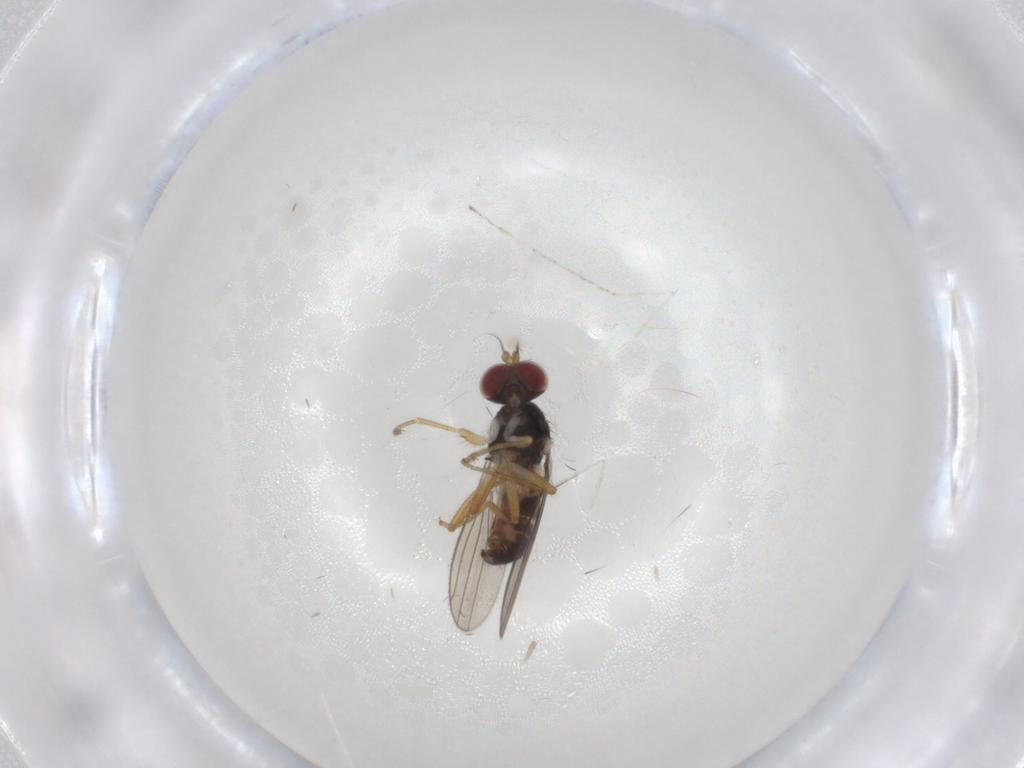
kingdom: Animalia
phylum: Arthropoda
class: Insecta
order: Diptera
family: Anthomyzidae
